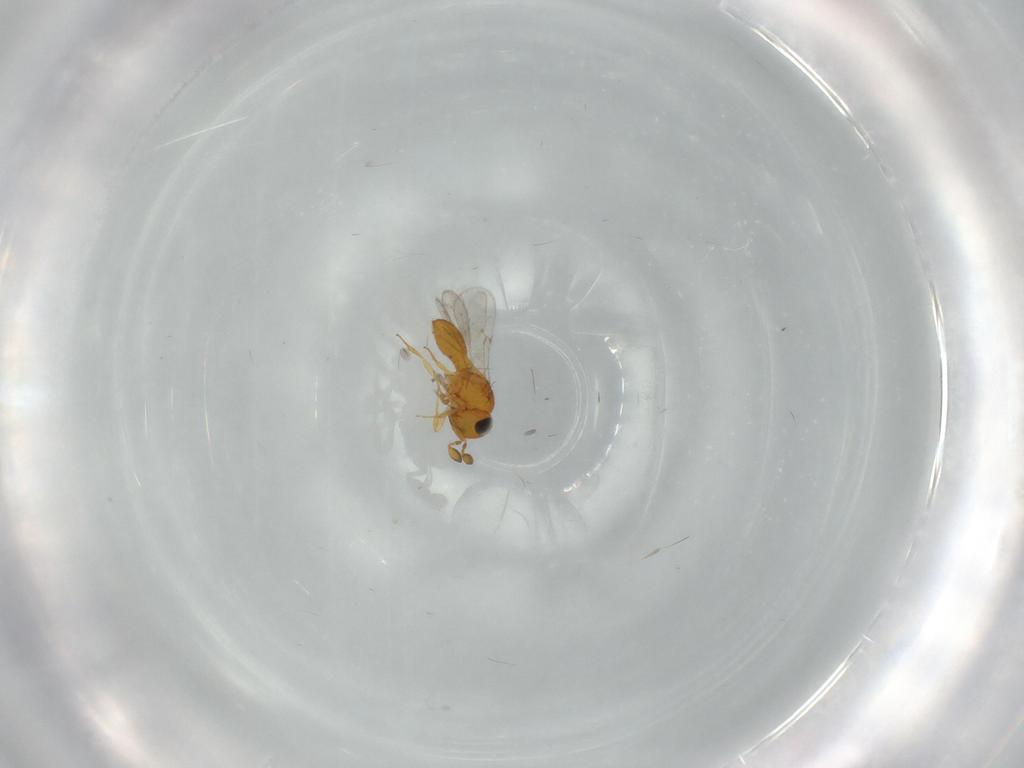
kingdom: Animalia
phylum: Arthropoda
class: Insecta
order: Hymenoptera
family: Scelionidae
